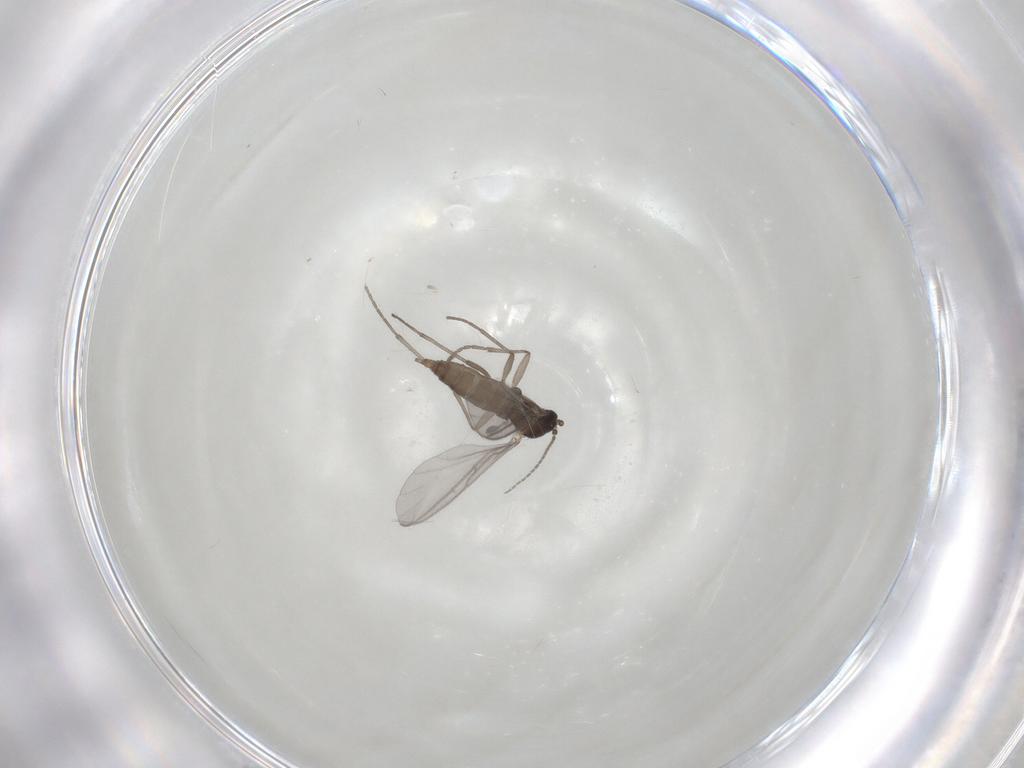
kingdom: Animalia
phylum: Arthropoda
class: Insecta
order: Diptera
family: Sciaridae
